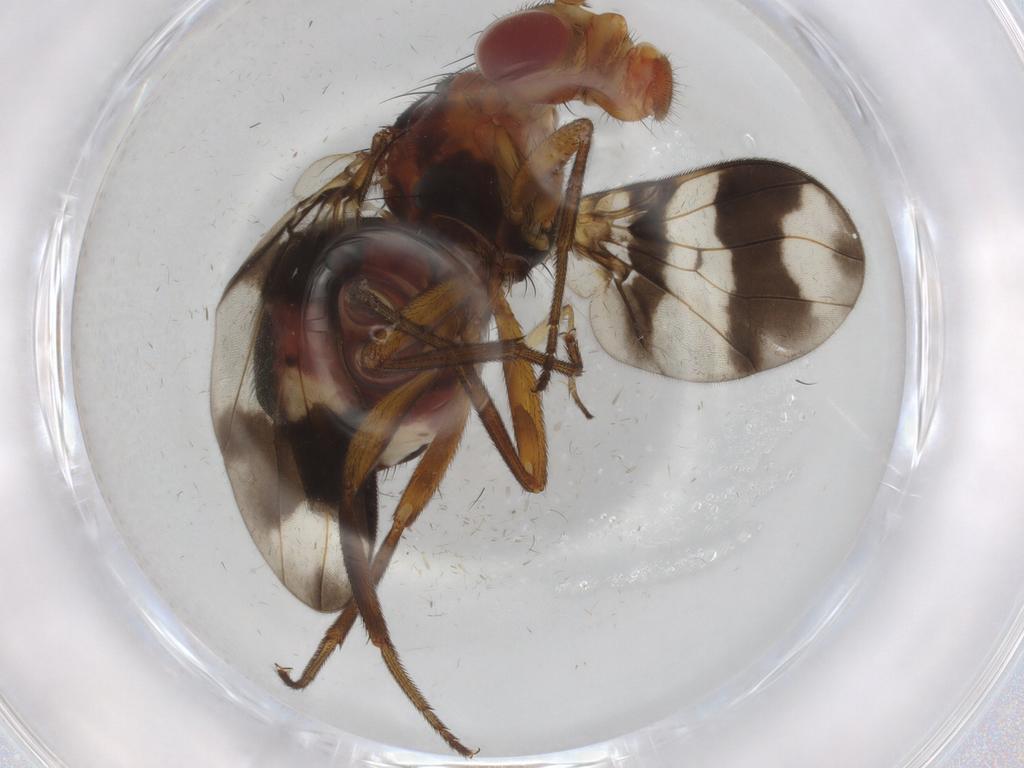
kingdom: Animalia
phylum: Arthropoda
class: Insecta
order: Diptera
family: Richardiidae
